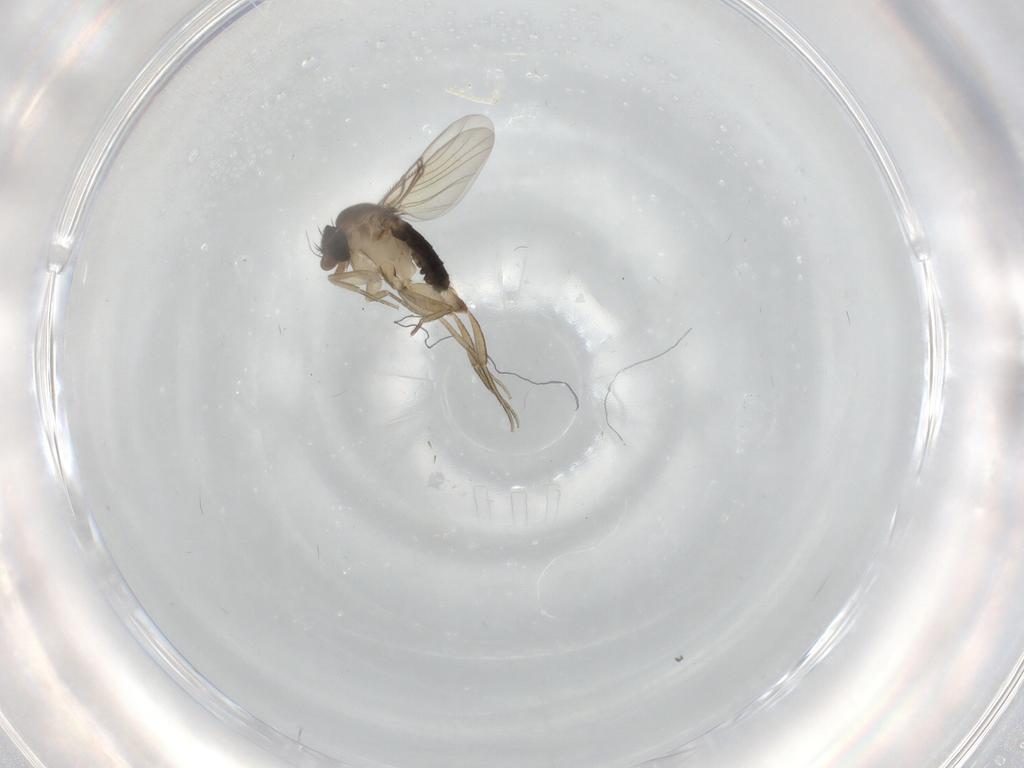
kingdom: Animalia
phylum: Arthropoda
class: Insecta
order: Diptera
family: Phoridae
